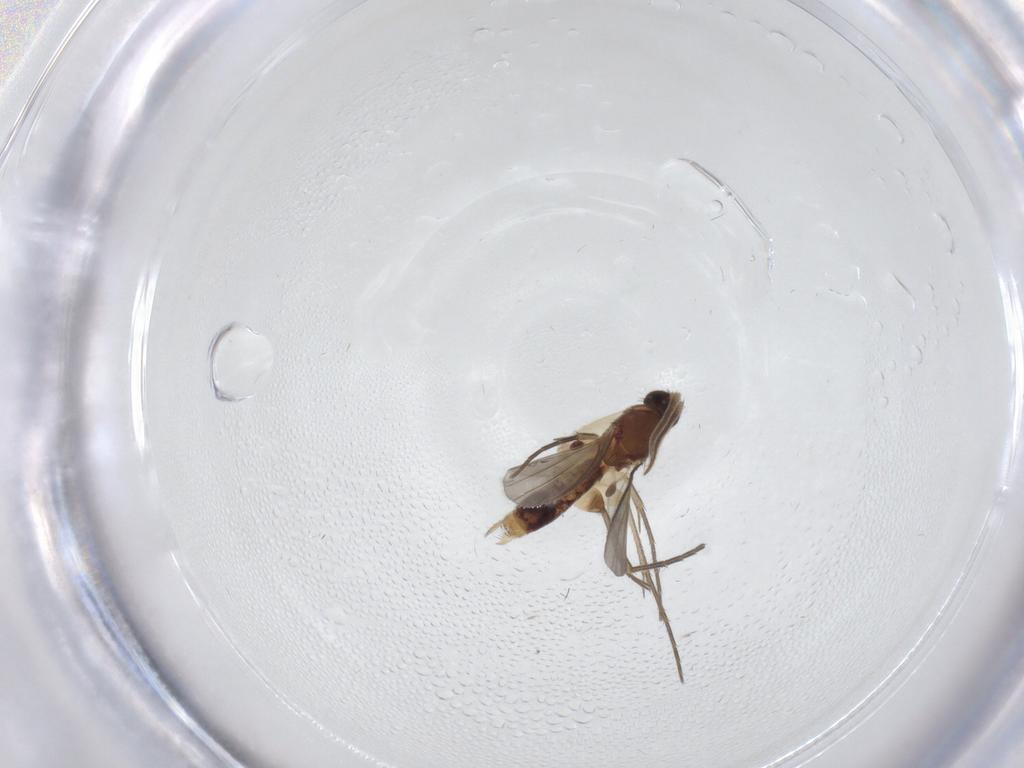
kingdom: Animalia
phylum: Arthropoda
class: Insecta
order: Diptera
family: Mycetophilidae
